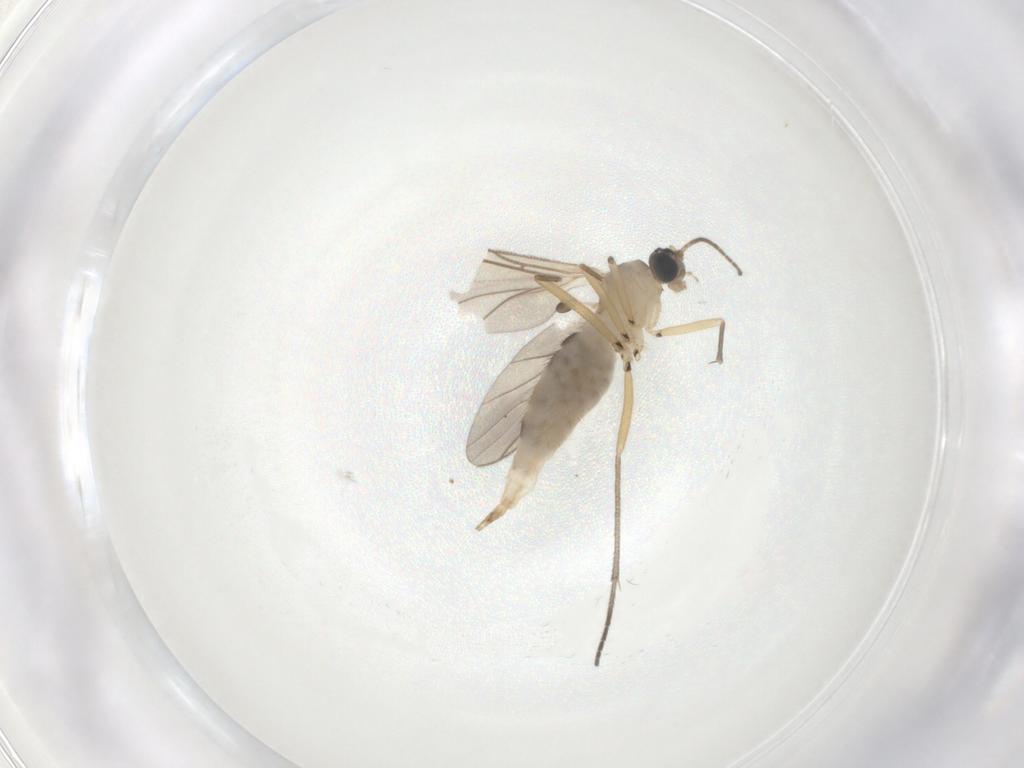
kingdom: Animalia
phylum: Arthropoda
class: Insecta
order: Diptera
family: Sciaridae
